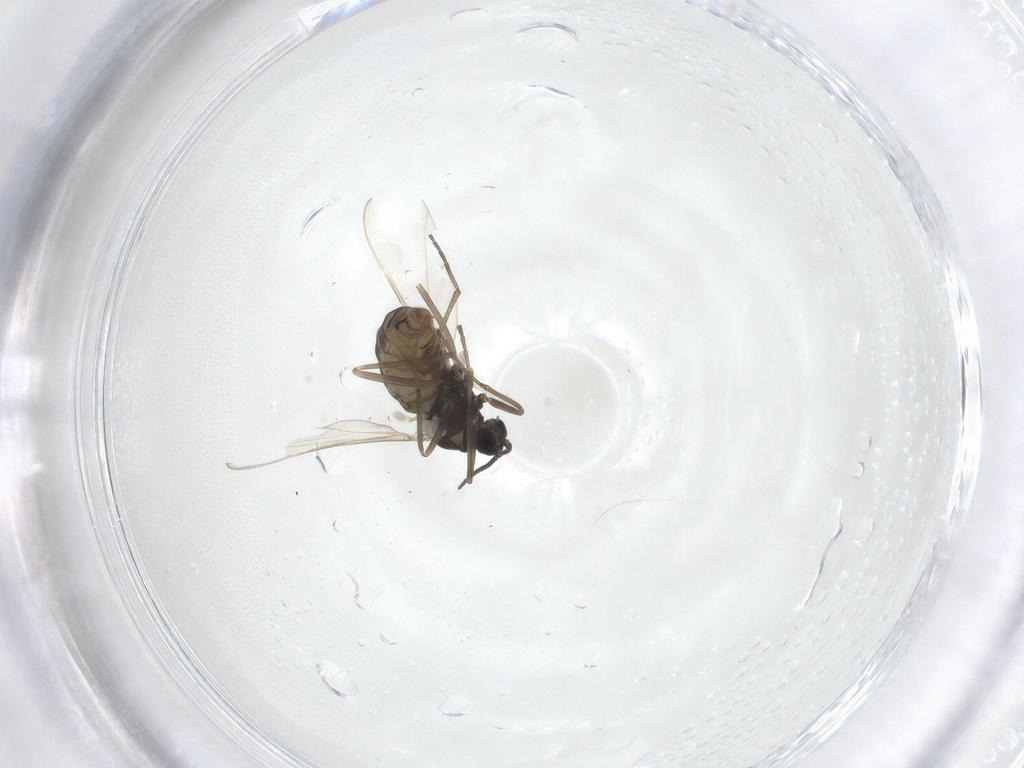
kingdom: Animalia
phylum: Arthropoda
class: Insecta
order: Diptera
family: Cecidomyiidae
